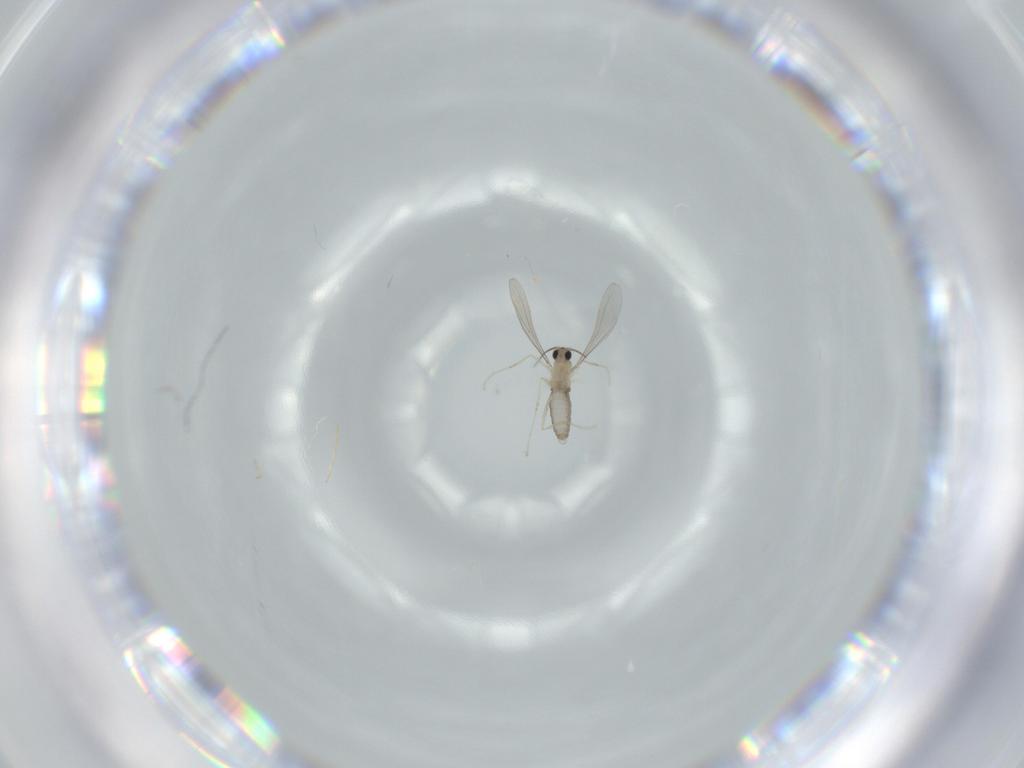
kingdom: Animalia
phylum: Arthropoda
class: Insecta
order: Diptera
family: Cecidomyiidae
